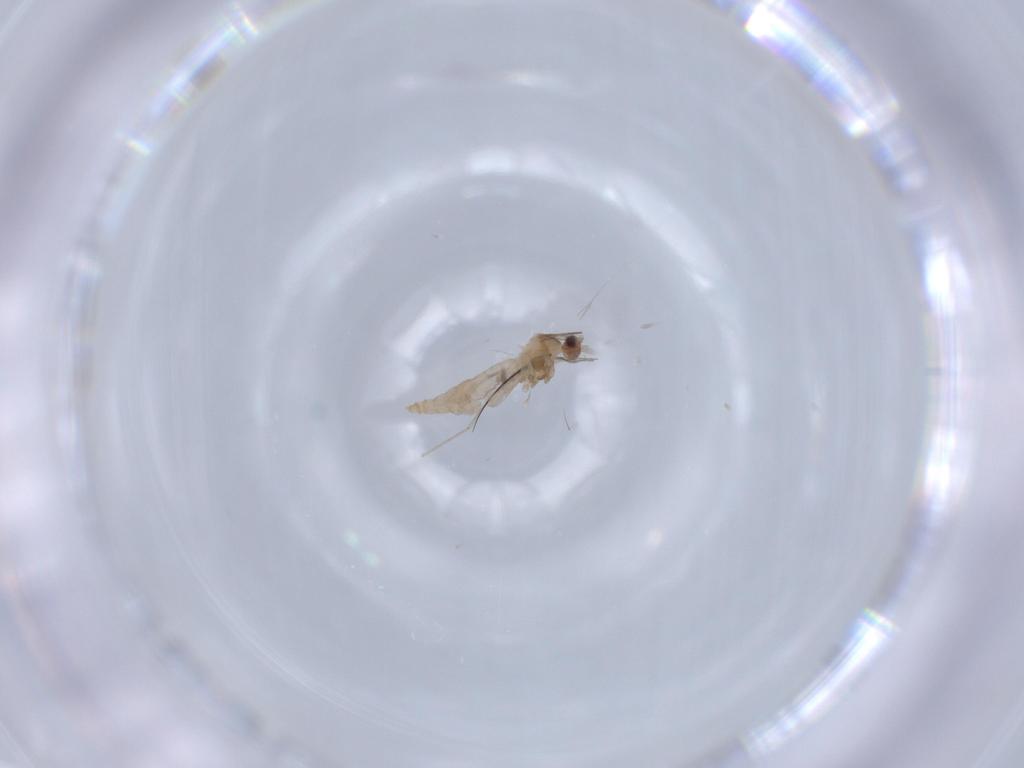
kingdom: Animalia
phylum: Arthropoda
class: Insecta
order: Diptera
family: Cecidomyiidae
